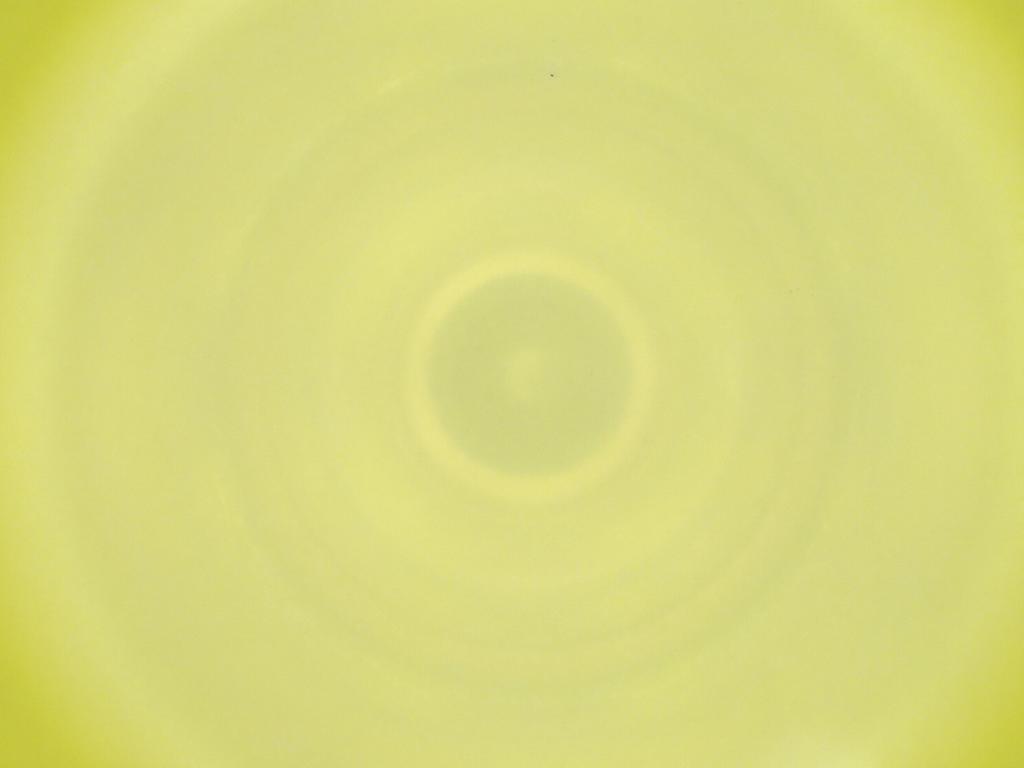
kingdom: Animalia
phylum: Arthropoda
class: Insecta
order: Diptera
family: Cecidomyiidae
